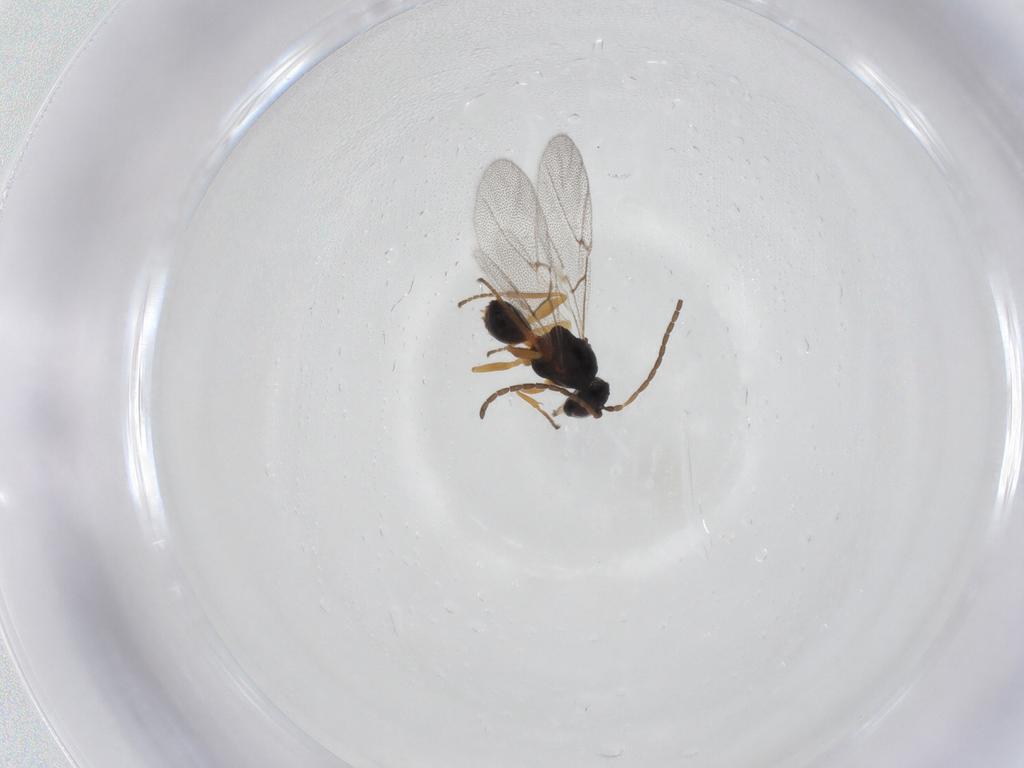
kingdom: Animalia
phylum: Arthropoda
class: Insecta
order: Hymenoptera
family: Cynipidae
